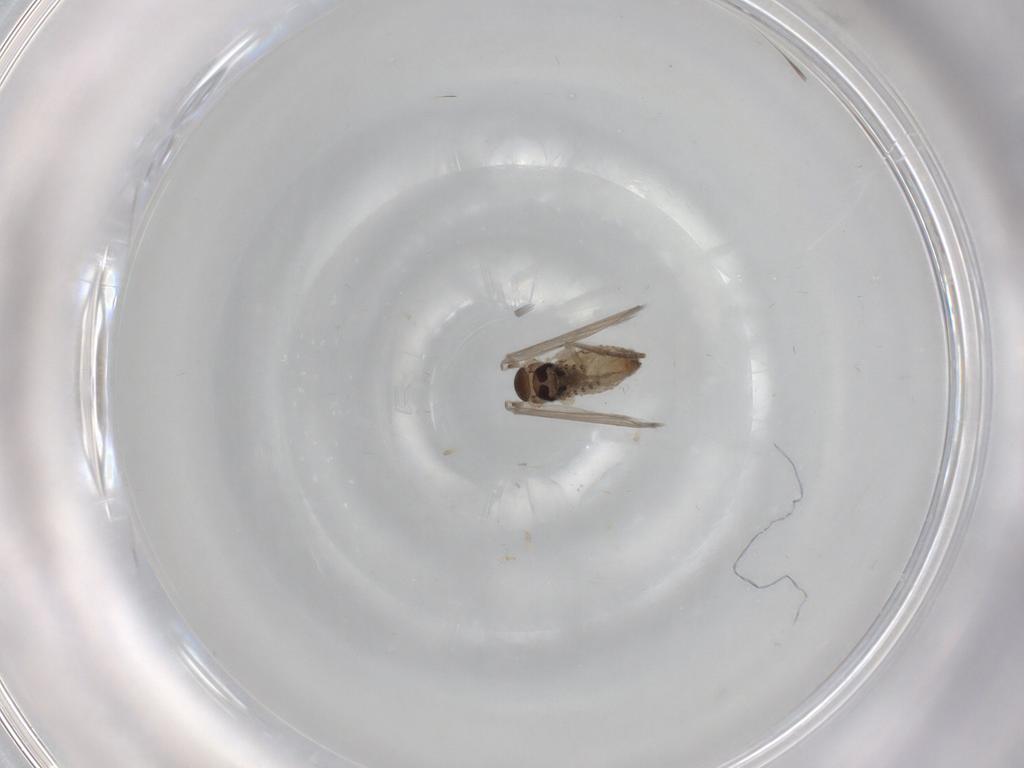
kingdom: Animalia
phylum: Arthropoda
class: Insecta
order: Diptera
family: Psychodidae
